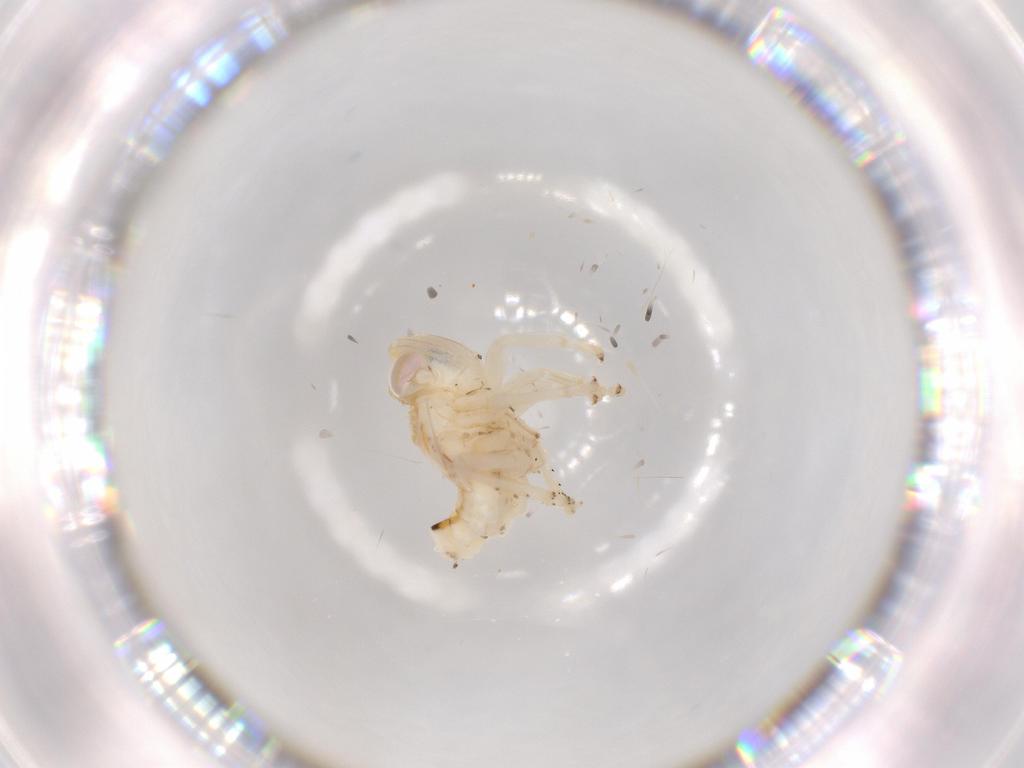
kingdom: Animalia
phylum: Arthropoda
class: Insecta
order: Hemiptera
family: Nogodinidae
